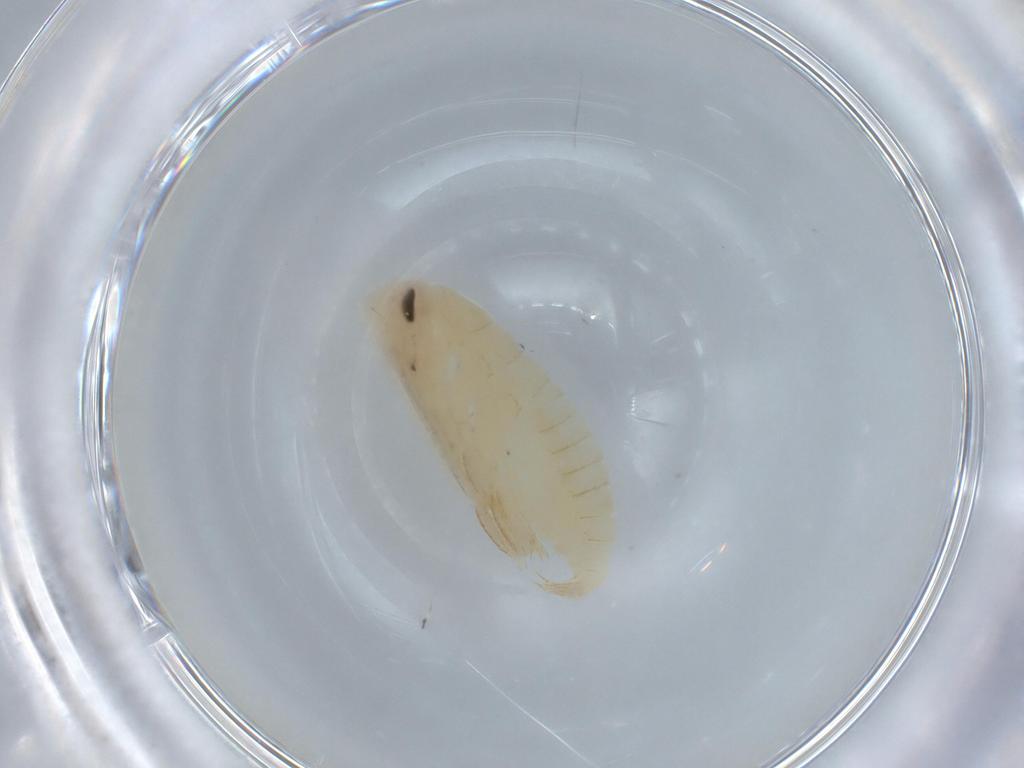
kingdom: Animalia
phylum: Arthropoda
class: Insecta
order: Blattodea
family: Ectobiidae
